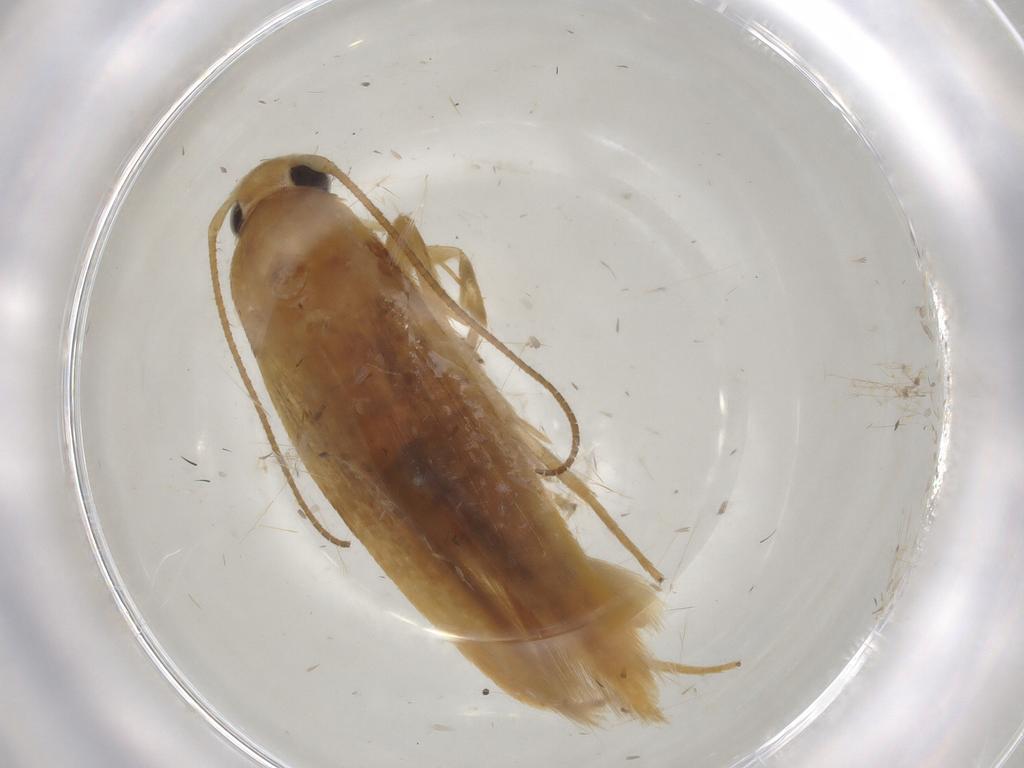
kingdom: Animalia
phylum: Arthropoda
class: Insecta
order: Lepidoptera
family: Stathmopodidae
